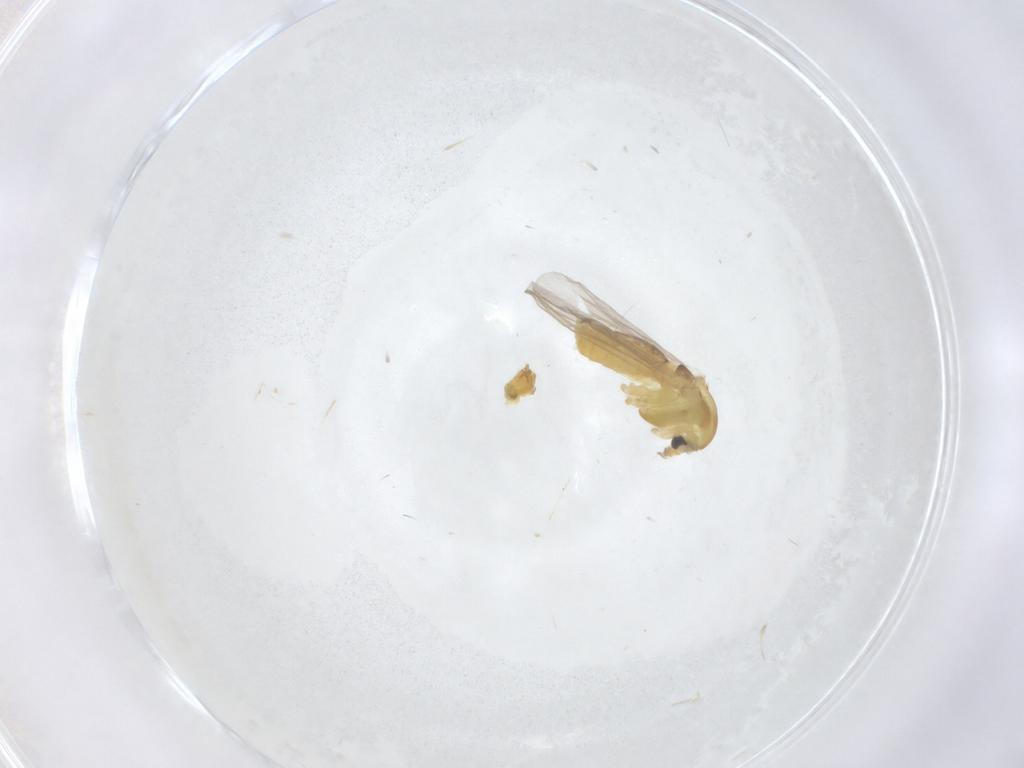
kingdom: Animalia
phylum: Arthropoda
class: Insecta
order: Diptera
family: Chironomidae
